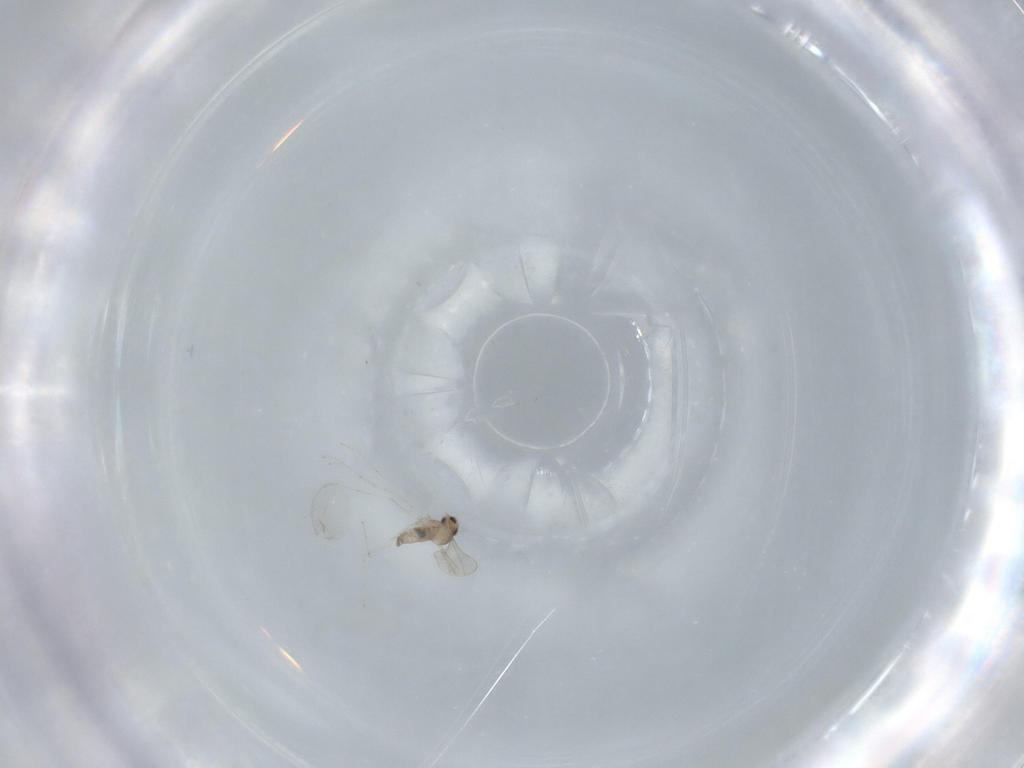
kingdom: Animalia
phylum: Arthropoda
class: Insecta
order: Diptera
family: Cecidomyiidae
